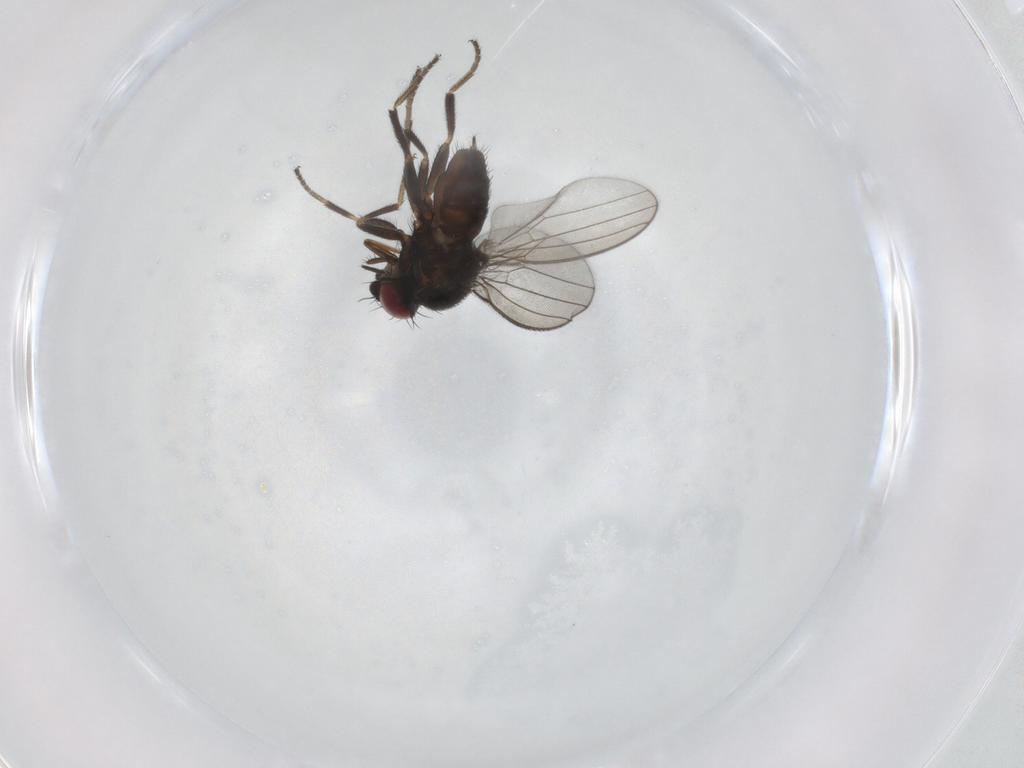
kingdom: Animalia
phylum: Arthropoda
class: Insecta
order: Diptera
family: Milichiidae
